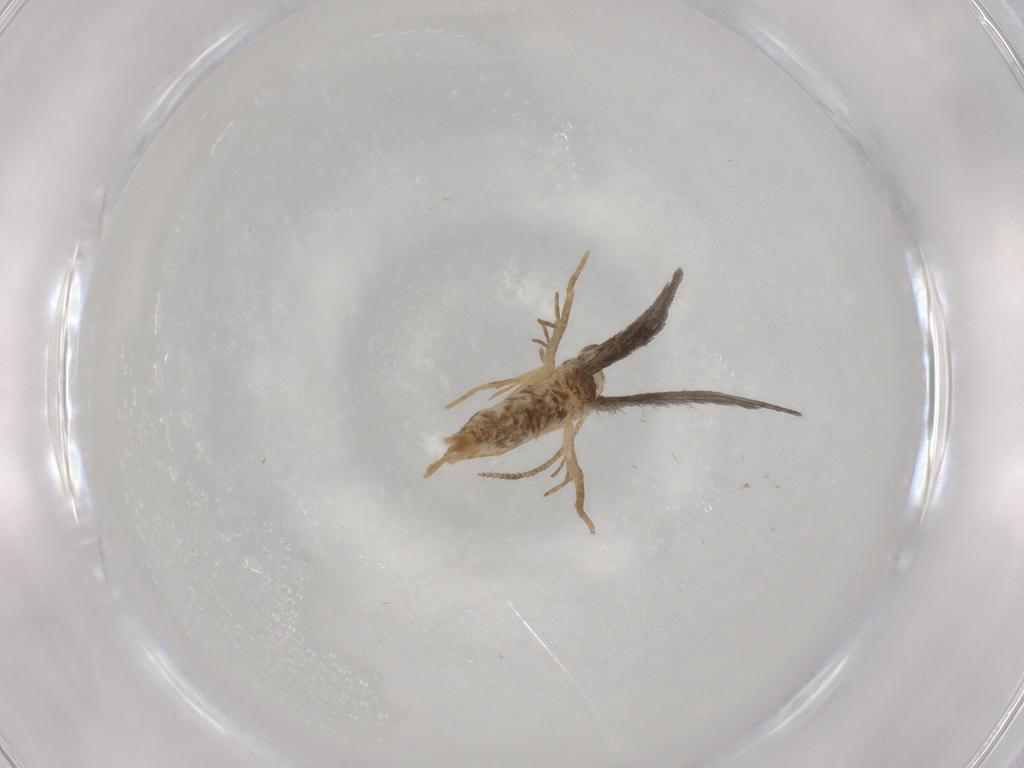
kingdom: Animalia
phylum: Arthropoda
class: Insecta
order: Lepidoptera
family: Schreckensteiniidae
